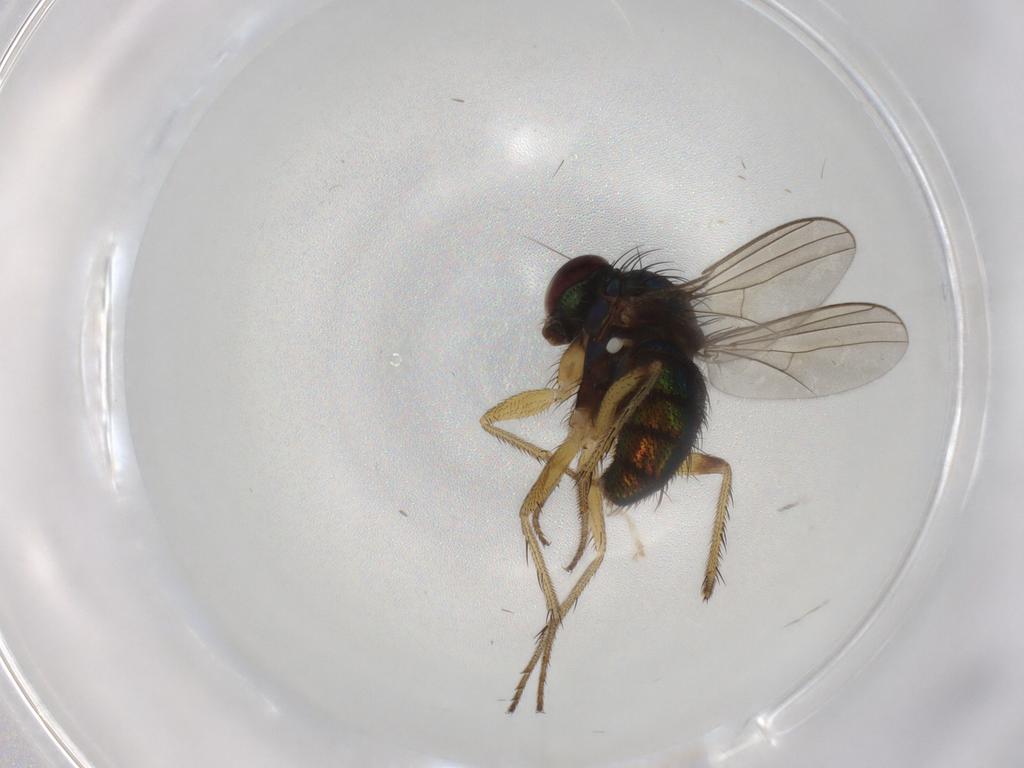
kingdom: Animalia
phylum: Arthropoda
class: Insecta
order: Diptera
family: Dolichopodidae
